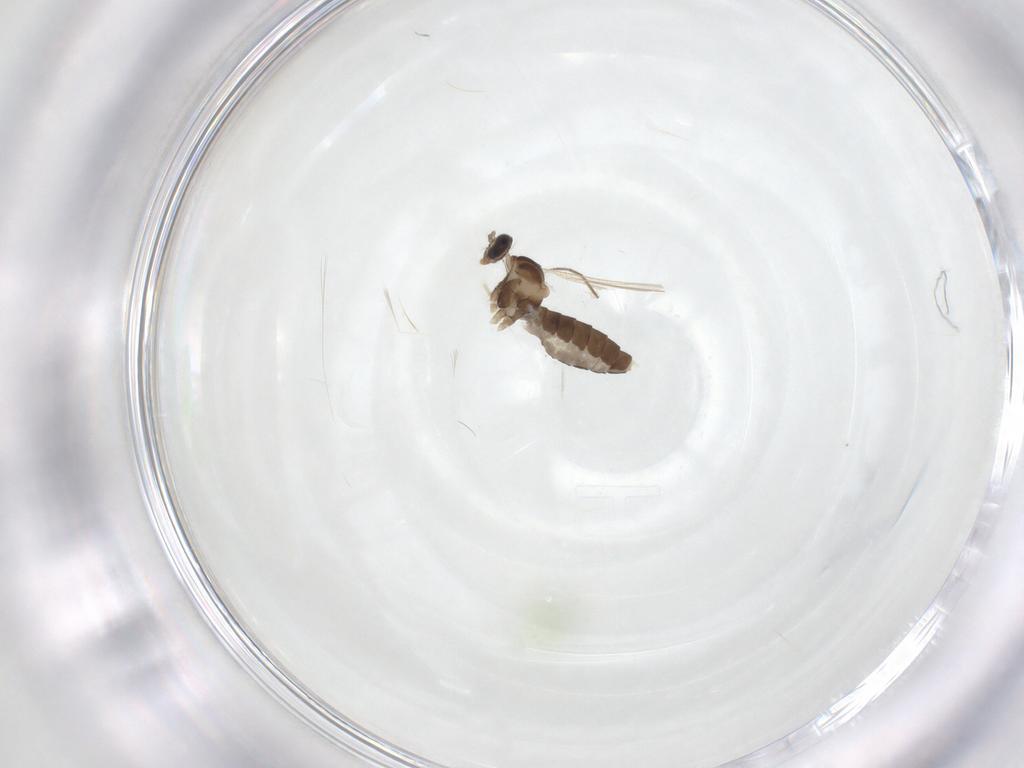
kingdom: Animalia
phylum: Arthropoda
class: Insecta
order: Diptera
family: Cecidomyiidae
